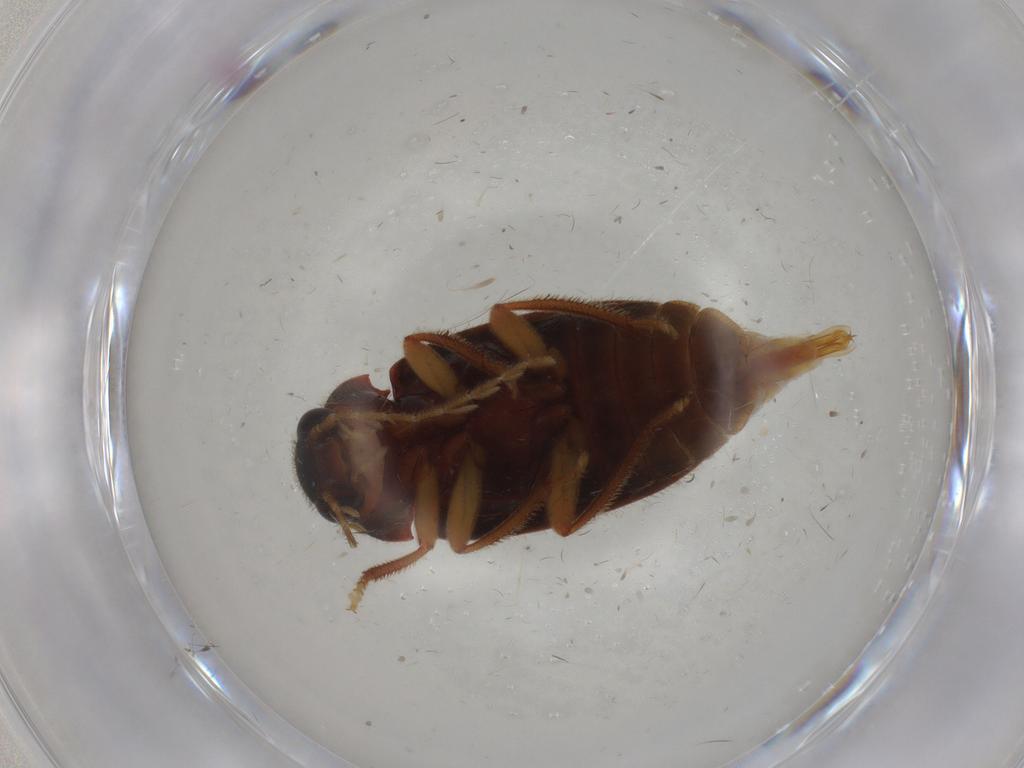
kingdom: Animalia
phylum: Arthropoda
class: Insecta
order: Coleoptera
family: Ptilodactylidae
